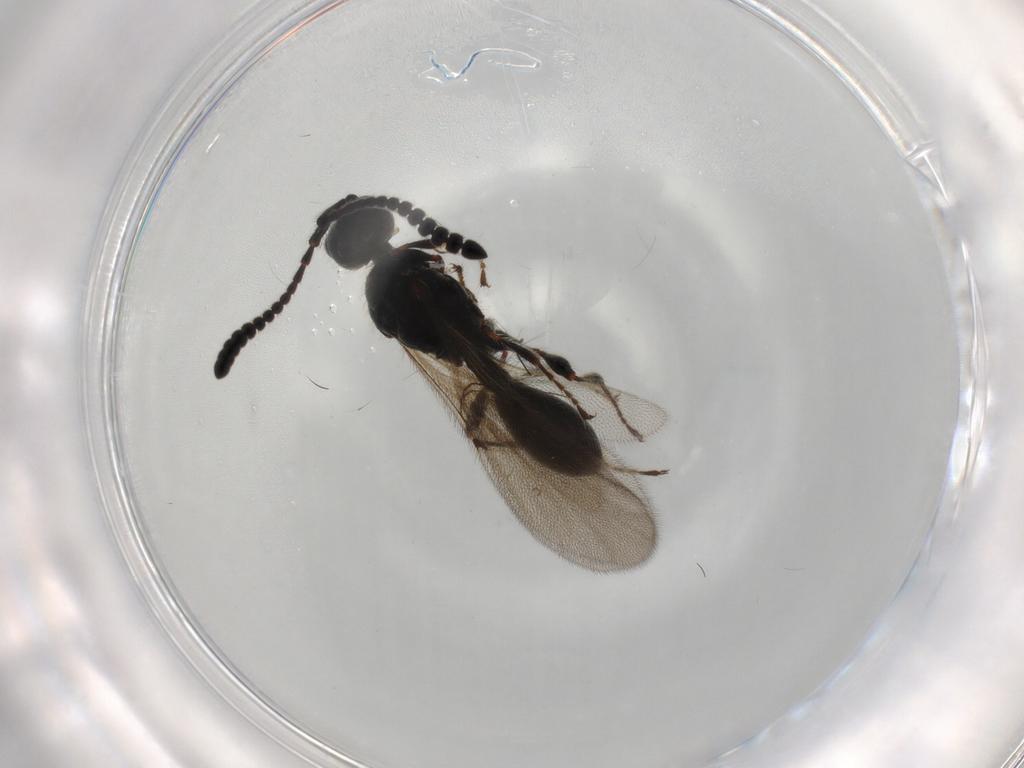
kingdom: Animalia
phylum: Arthropoda
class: Insecta
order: Hymenoptera
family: Diapriidae
